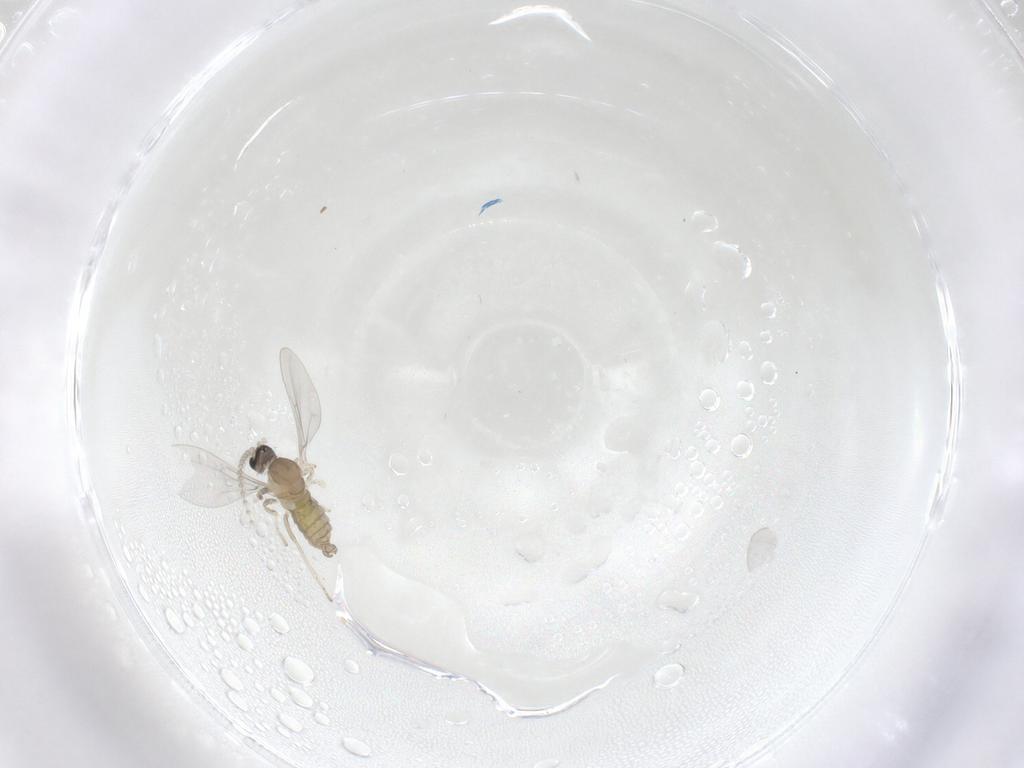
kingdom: Animalia
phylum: Arthropoda
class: Insecta
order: Diptera
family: Cecidomyiidae
